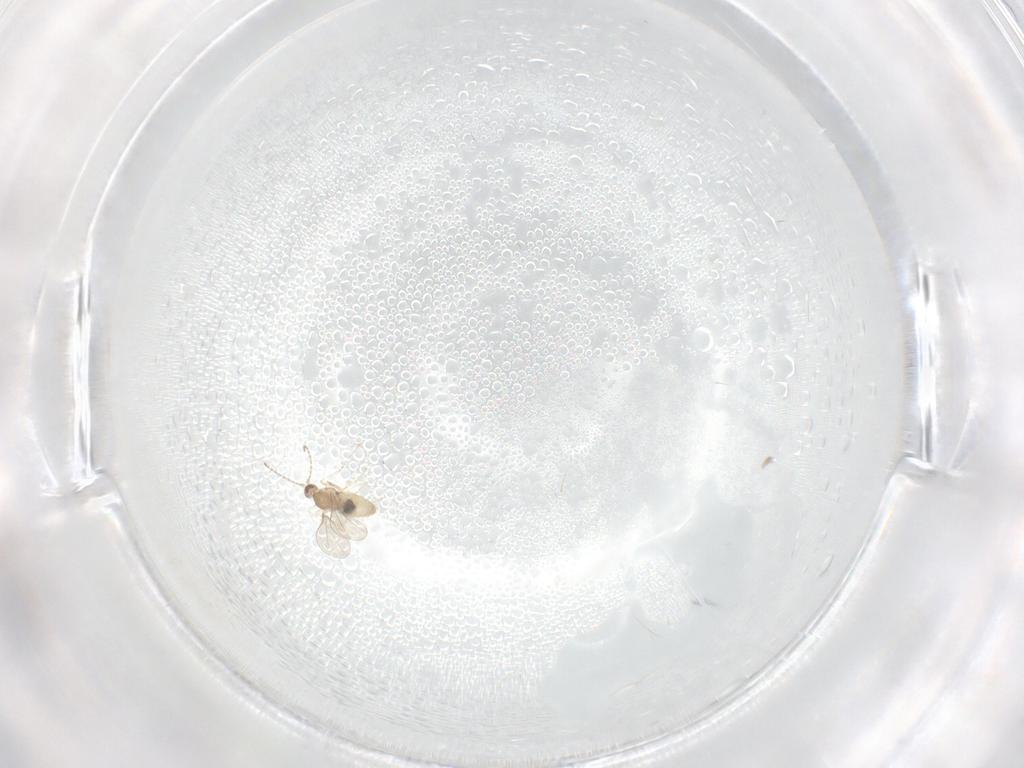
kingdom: Animalia
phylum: Arthropoda
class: Insecta
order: Diptera
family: Cecidomyiidae
